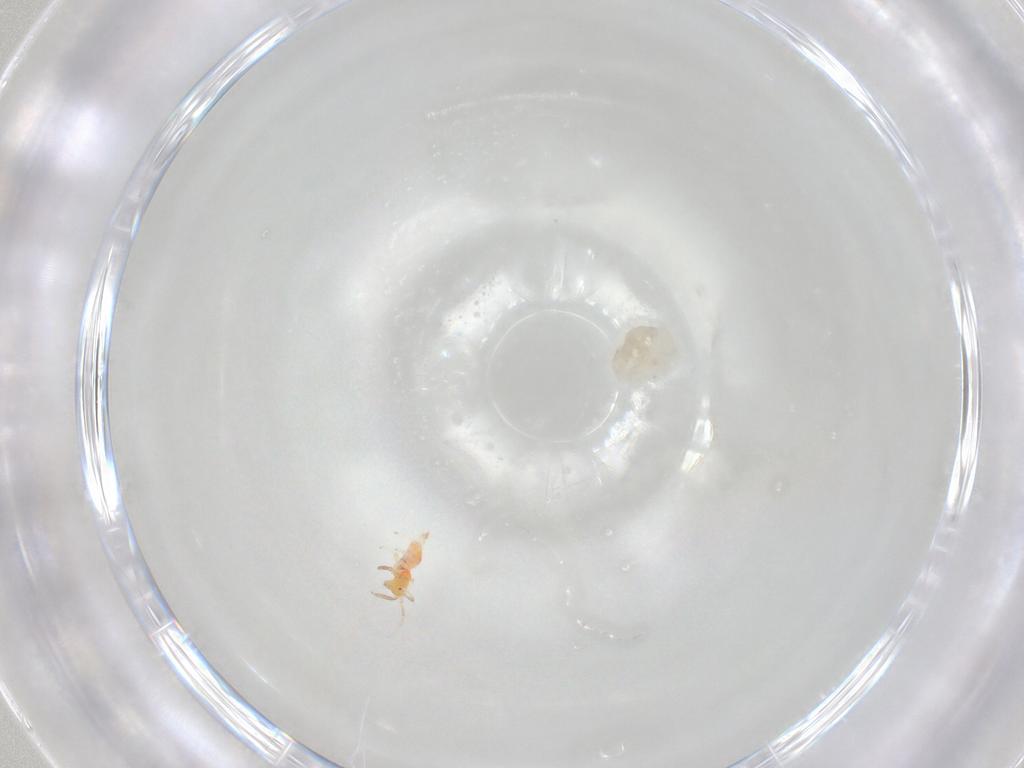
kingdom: Animalia
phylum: Arthropoda
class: Insecta
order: Thysanoptera
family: Aeolothripidae
